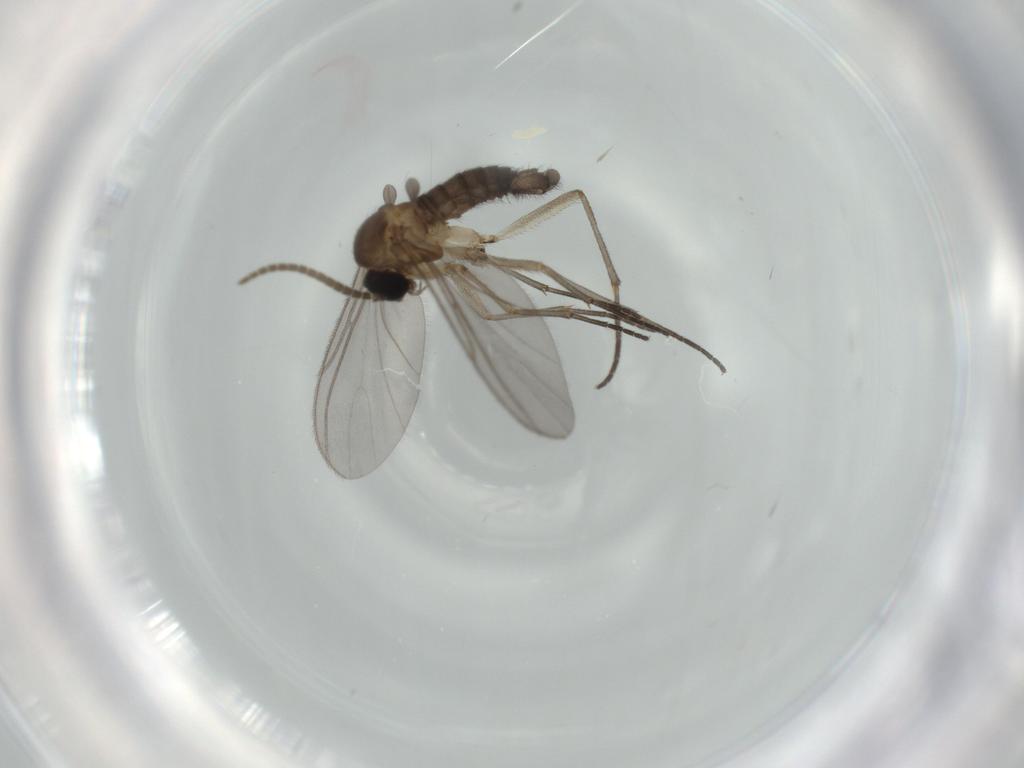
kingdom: Animalia
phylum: Arthropoda
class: Insecta
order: Diptera
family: Sciaridae
